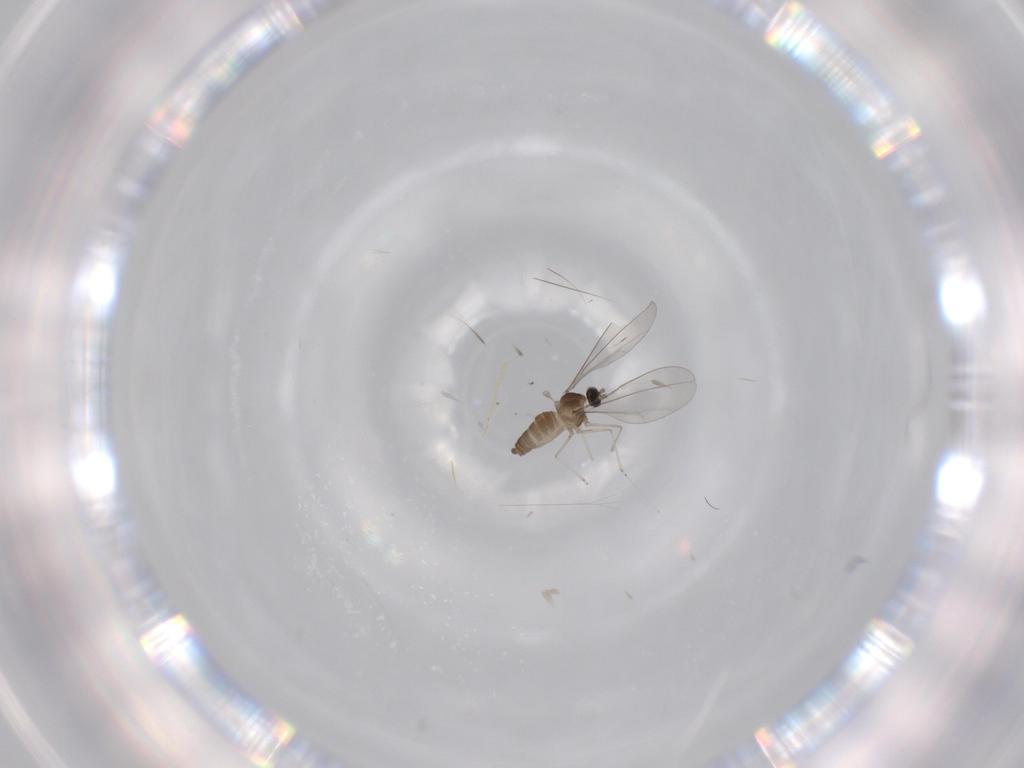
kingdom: Animalia
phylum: Arthropoda
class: Insecta
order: Diptera
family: Cecidomyiidae
